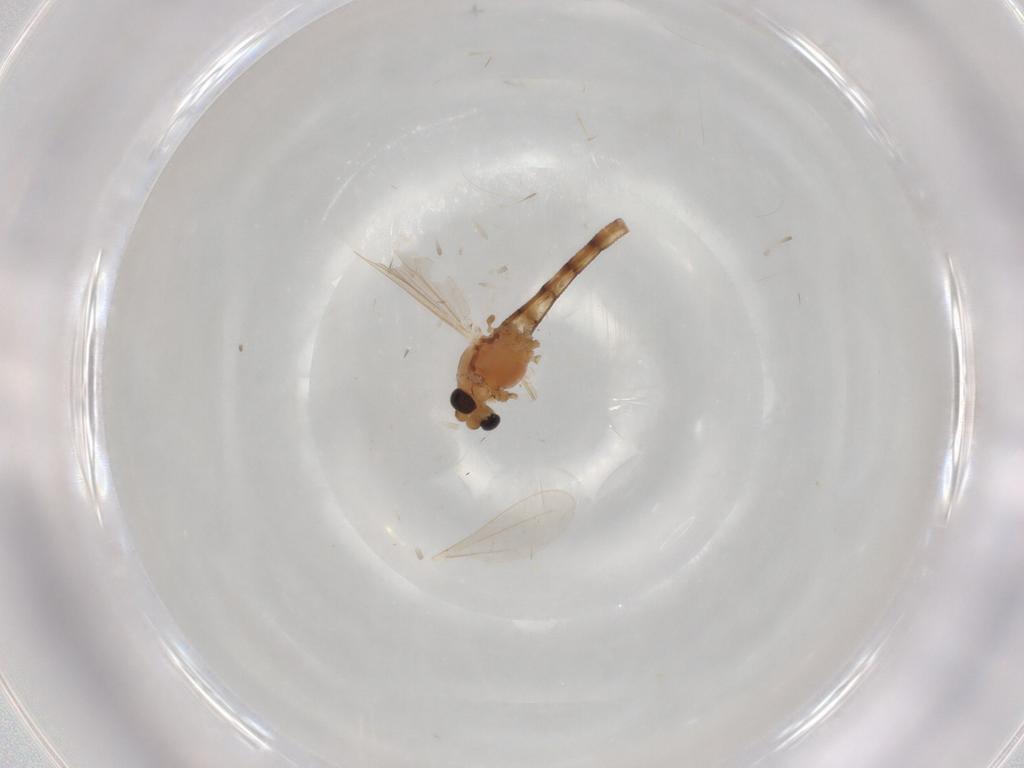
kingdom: Animalia
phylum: Arthropoda
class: Insecta
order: Diptera
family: Chironomidae
